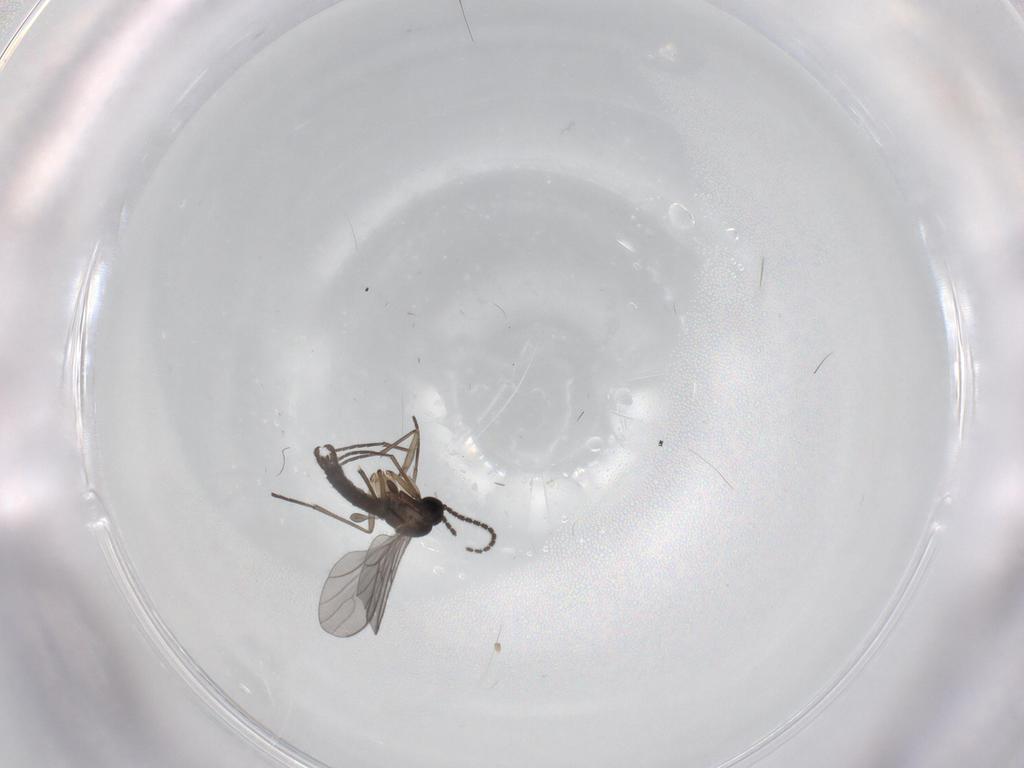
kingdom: Animalia
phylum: Arthropoda
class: Insecta
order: Diptera
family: Sciaridae
